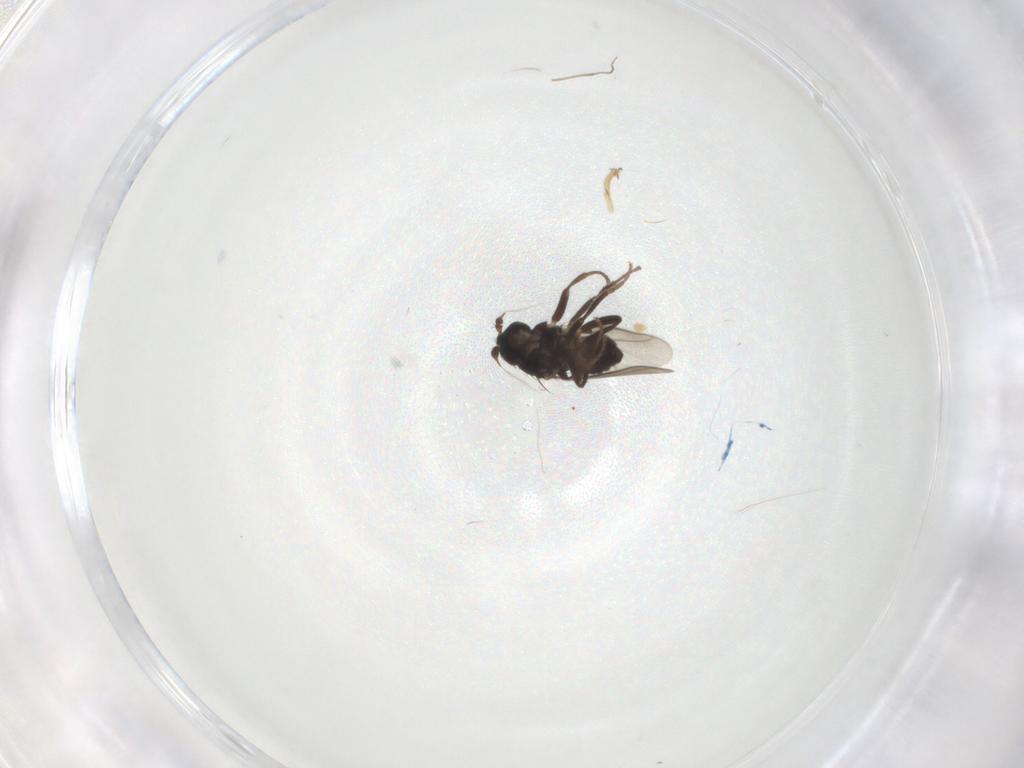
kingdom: Animalia
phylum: Arthropoda
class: Insecta
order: Diptera
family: Sphaeroceridae
